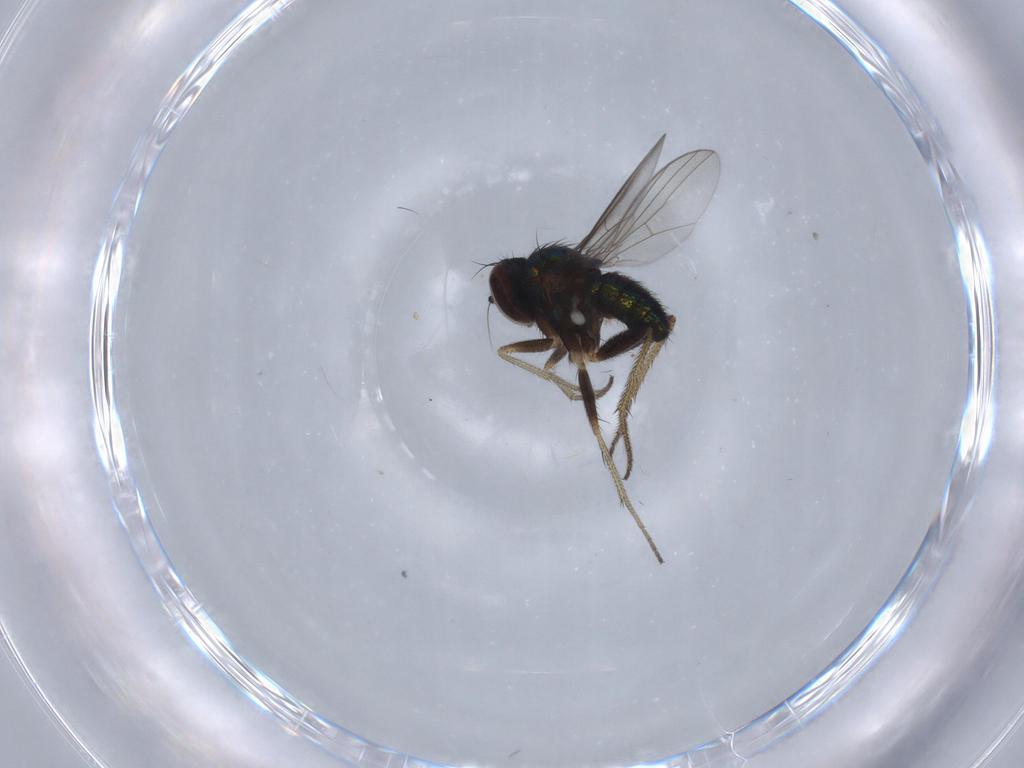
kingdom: Animalia
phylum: Arthropoda
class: Insecta
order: Diptera
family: Dolichopodidae
